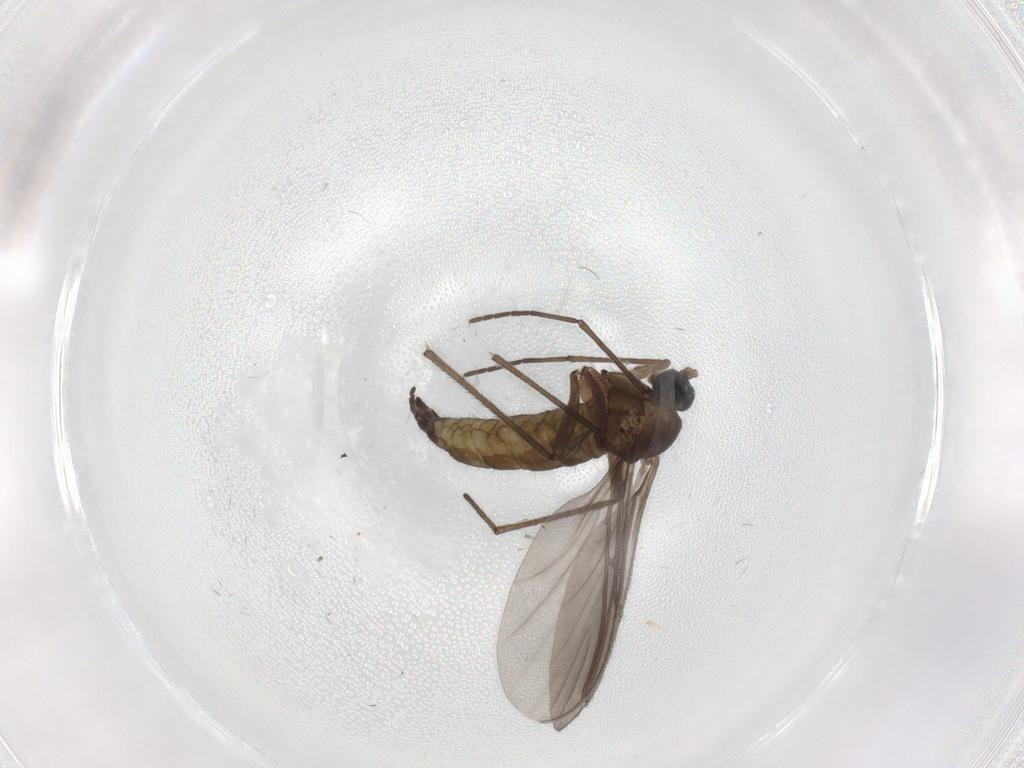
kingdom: Animalia
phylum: Arthropoda
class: Insecta
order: Diptera
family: Sciaridae
